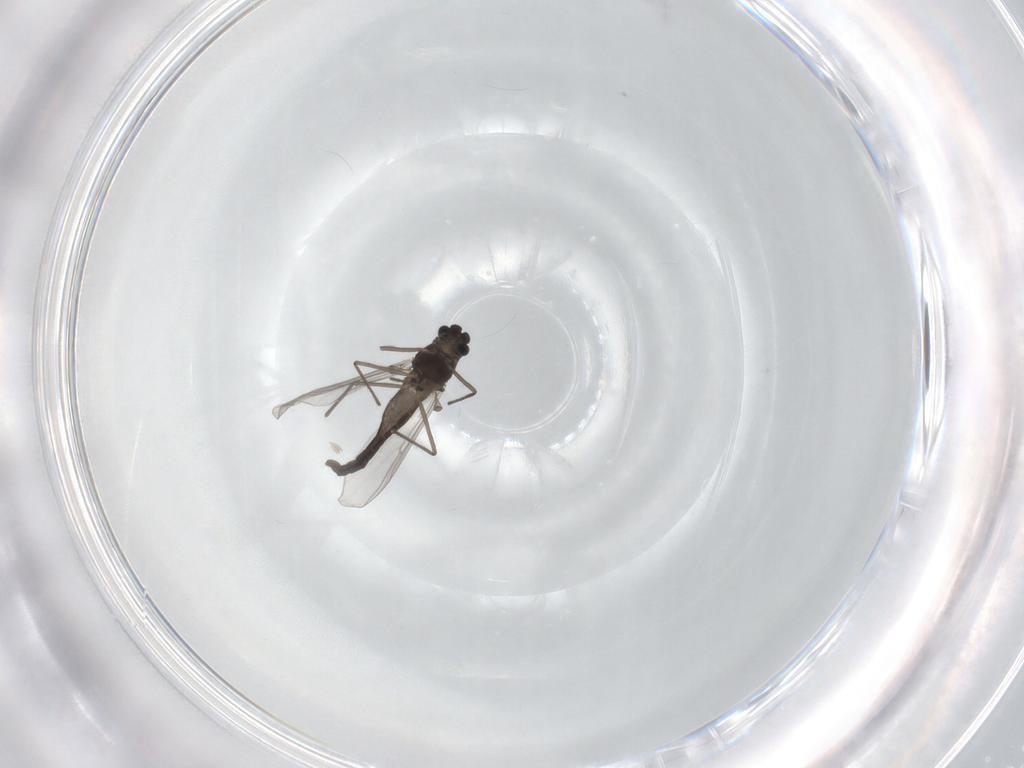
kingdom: Animalia
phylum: Arthropoda
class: Insecta
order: Diptera
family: Chironomidae
